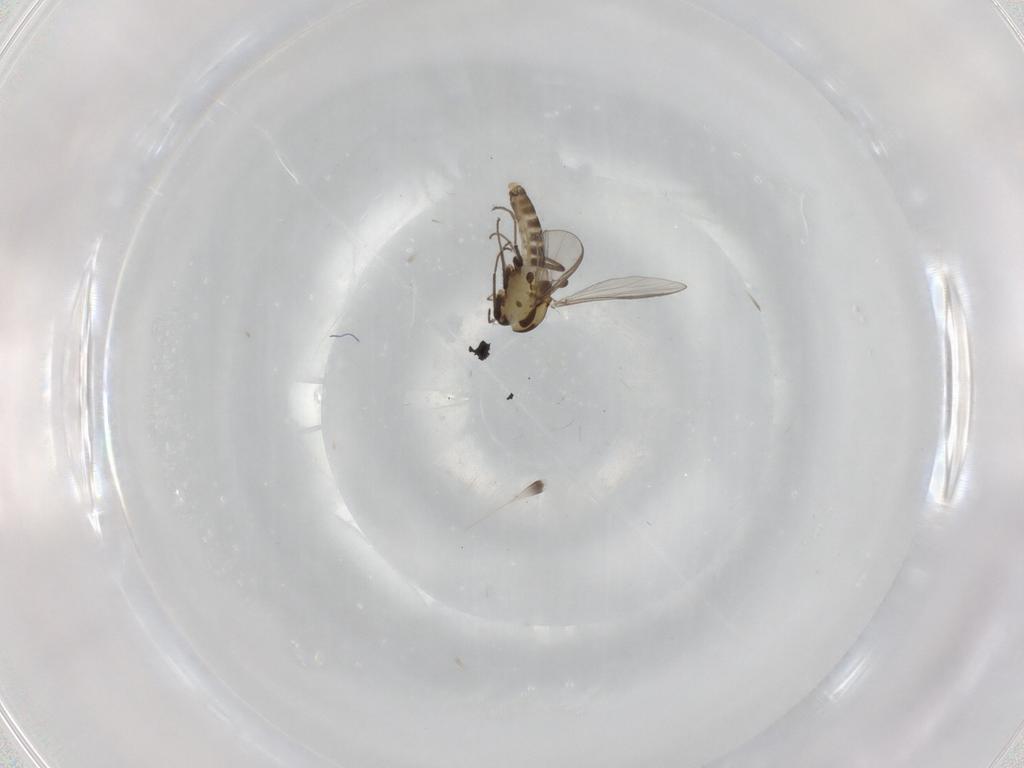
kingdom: Animalia
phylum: Arthropoda
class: Insecta
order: Diptera
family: Chironomidae
